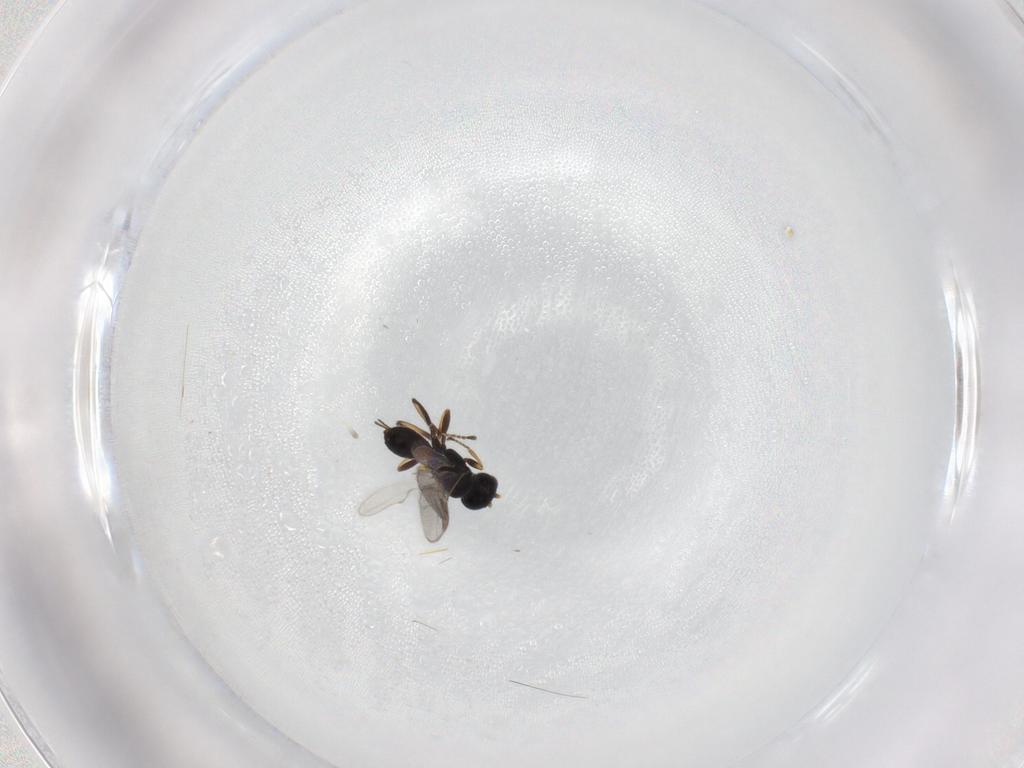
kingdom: Animalia
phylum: Arthropoda
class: Insecta
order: Hymenoptera
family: Braconidae
